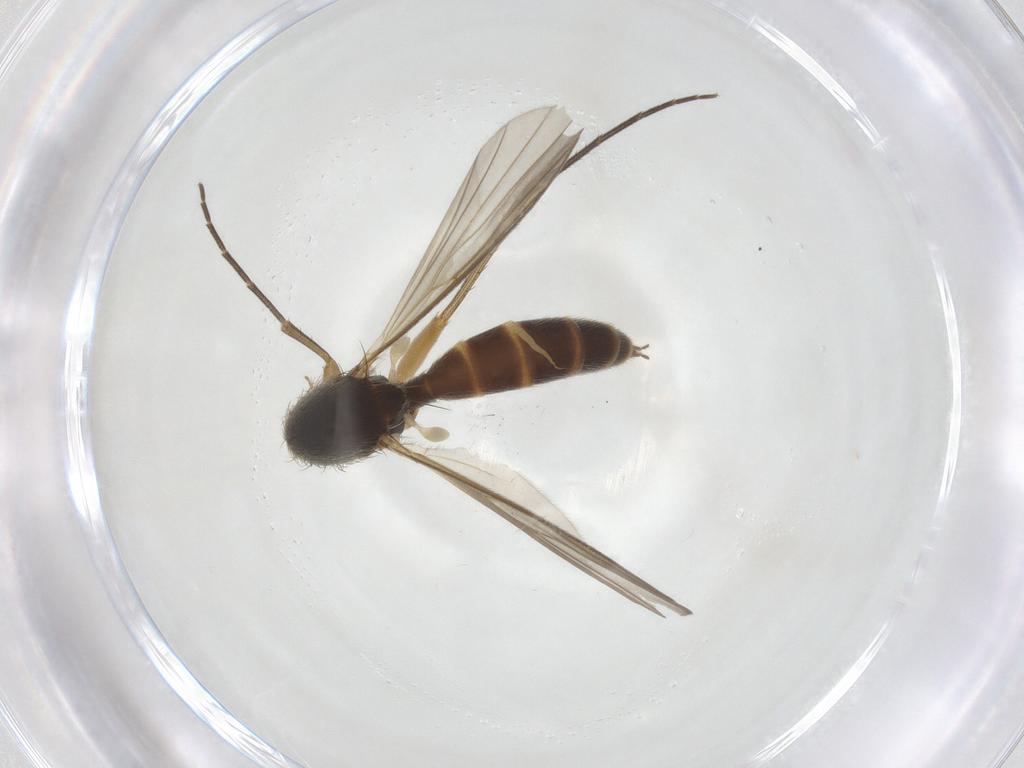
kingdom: Animalia
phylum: Arthropoda
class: Insecta
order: Diptera
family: Mycetophilidae
